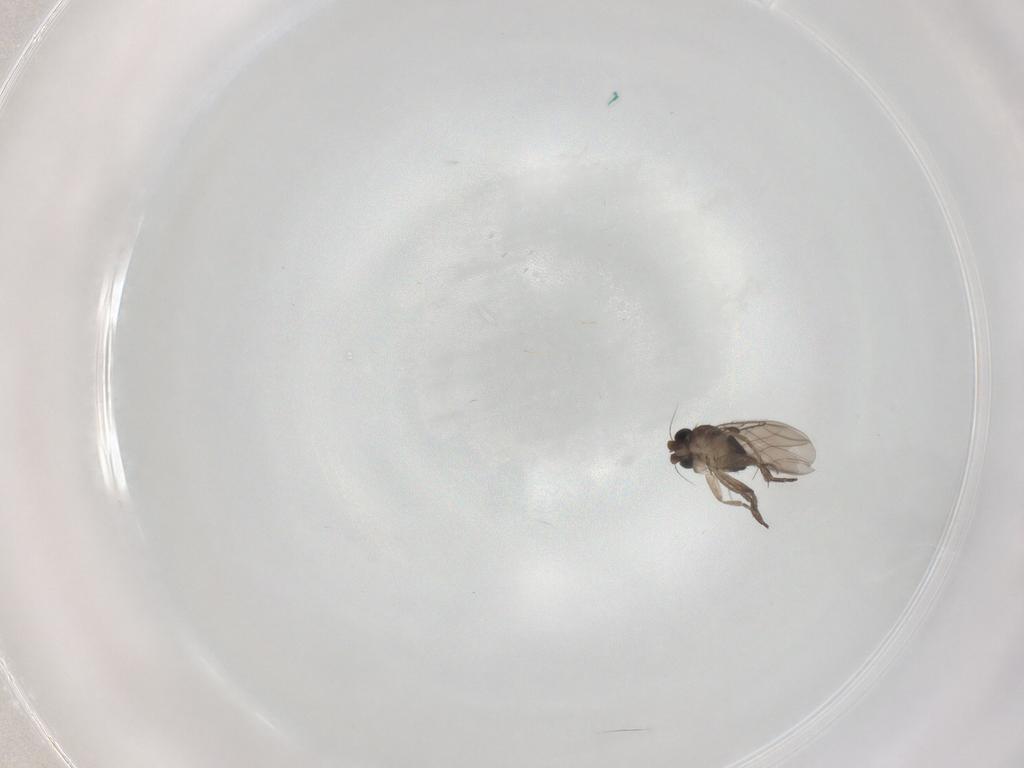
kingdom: Animalia
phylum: Arthropoda
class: Insecta
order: Diptera
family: Phoridae
